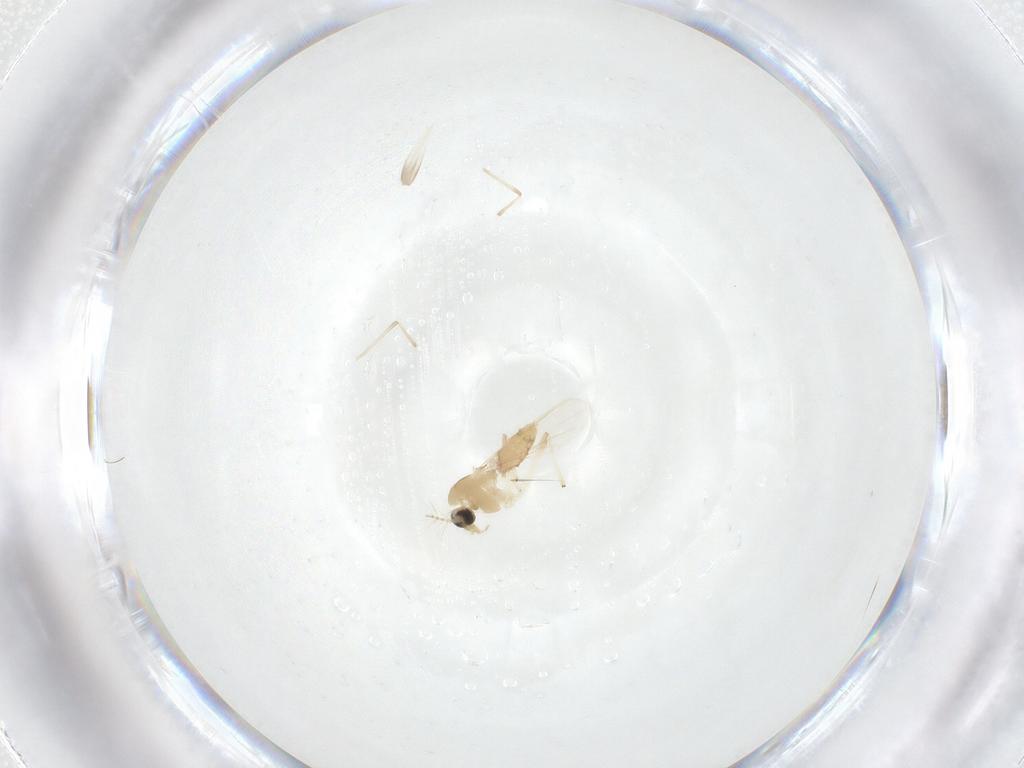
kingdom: Animalia
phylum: Arthropoda
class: Insecta
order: Diptera
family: Chironomidae
